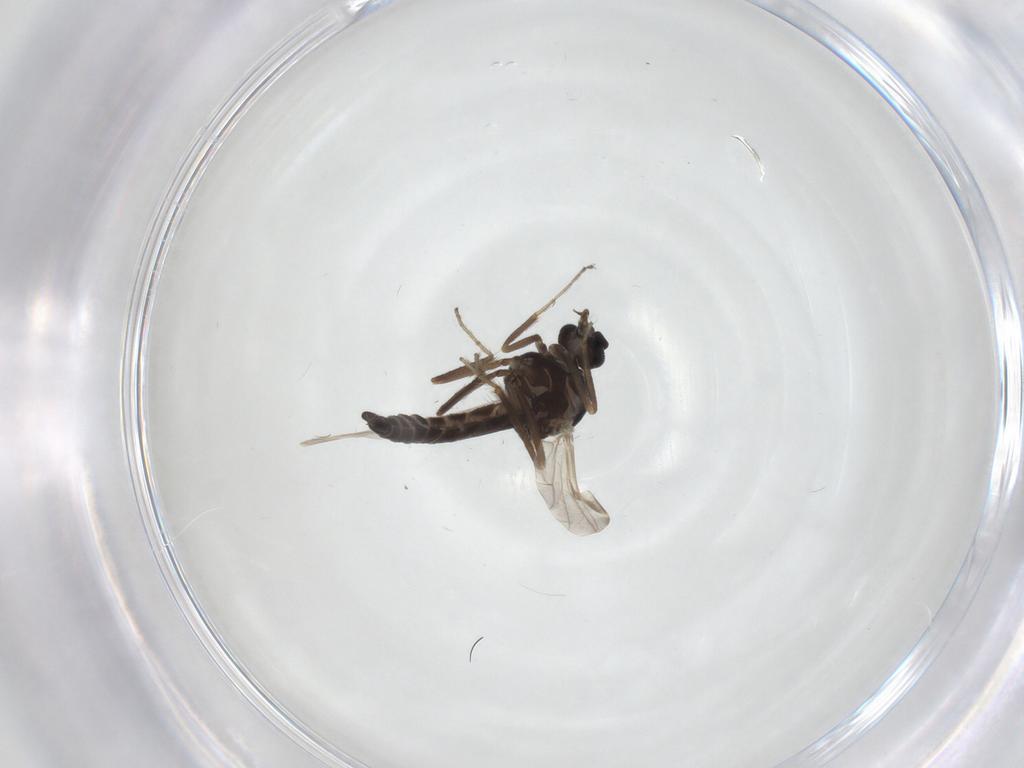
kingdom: Animalia
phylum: Arthropoda
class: Insecta
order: Diptera
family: Ceratopogonidae
